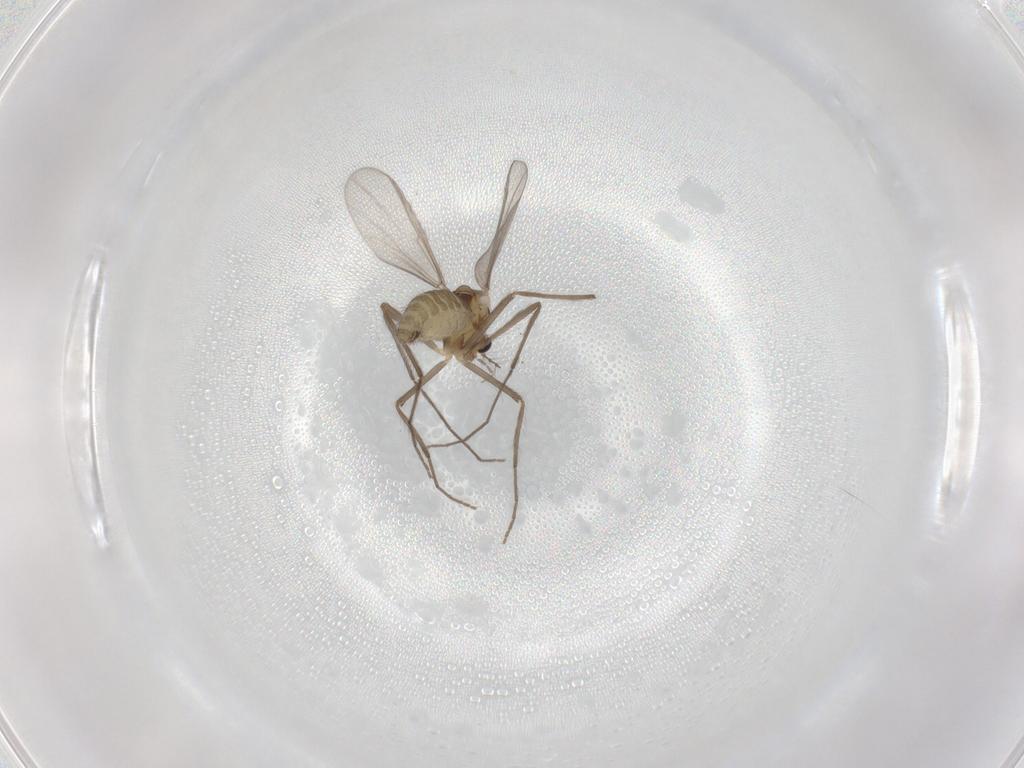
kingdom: Animalia
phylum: Arthropoda
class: Insecta
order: Diptera
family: Chironomidae
